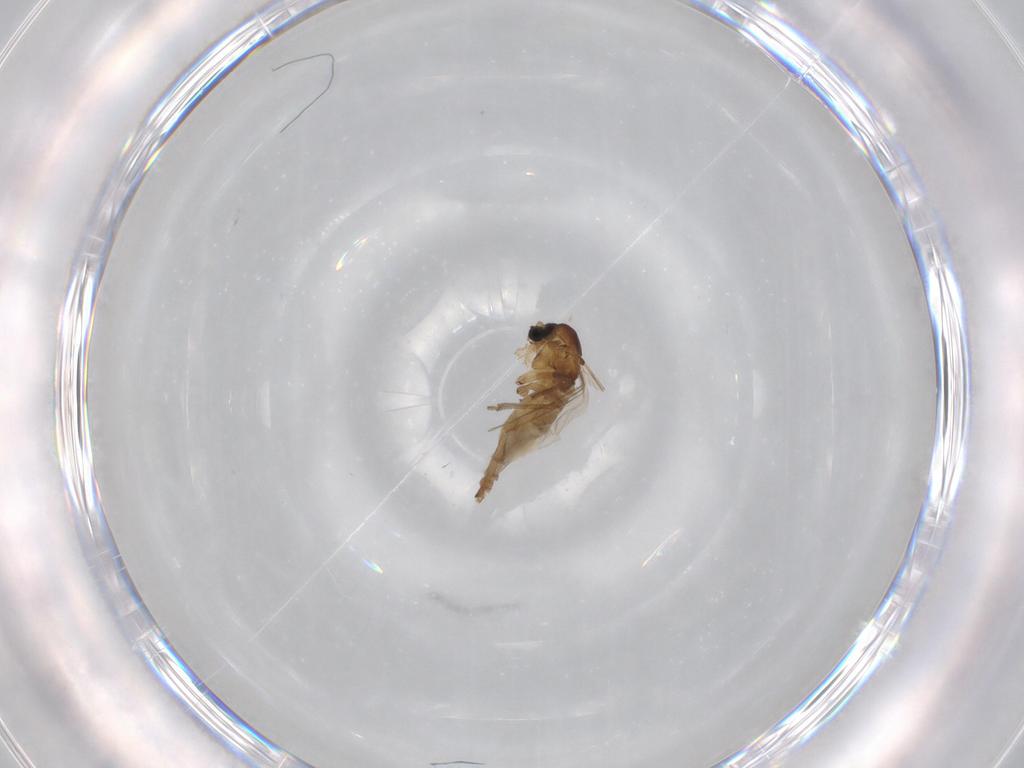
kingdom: Animalia
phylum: Arthropoda
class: Insecta
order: Diptera
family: Sciaridae
